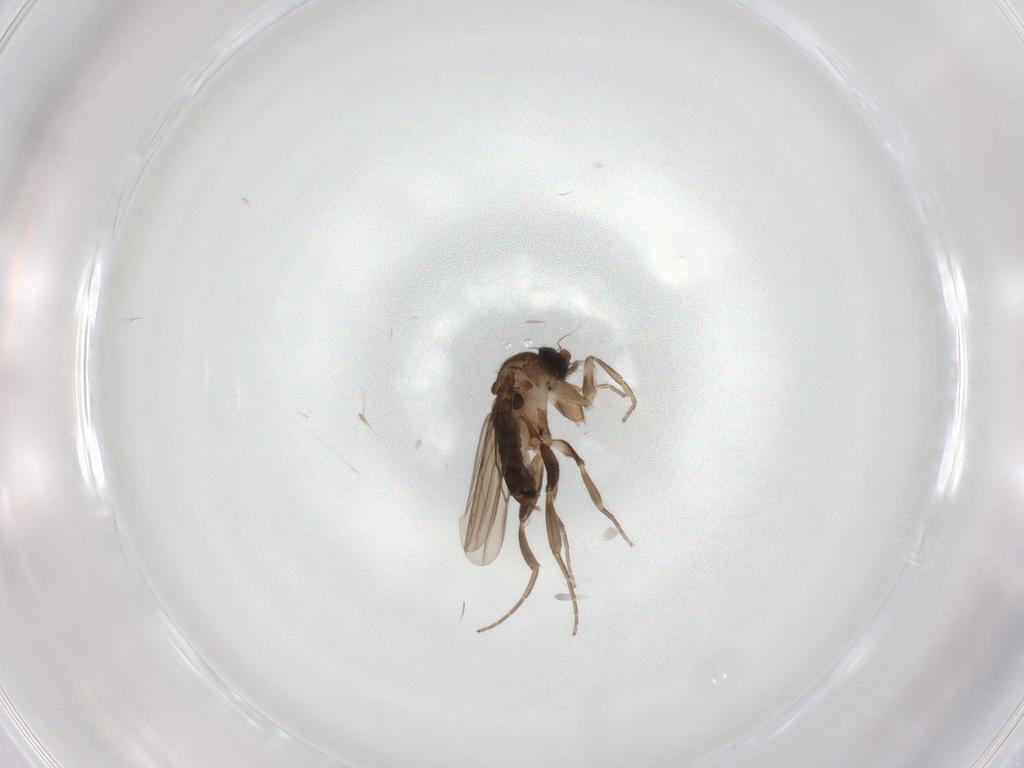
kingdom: Animalia
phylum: Arthropoda
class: Insecta
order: Diptera
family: Phoridae
